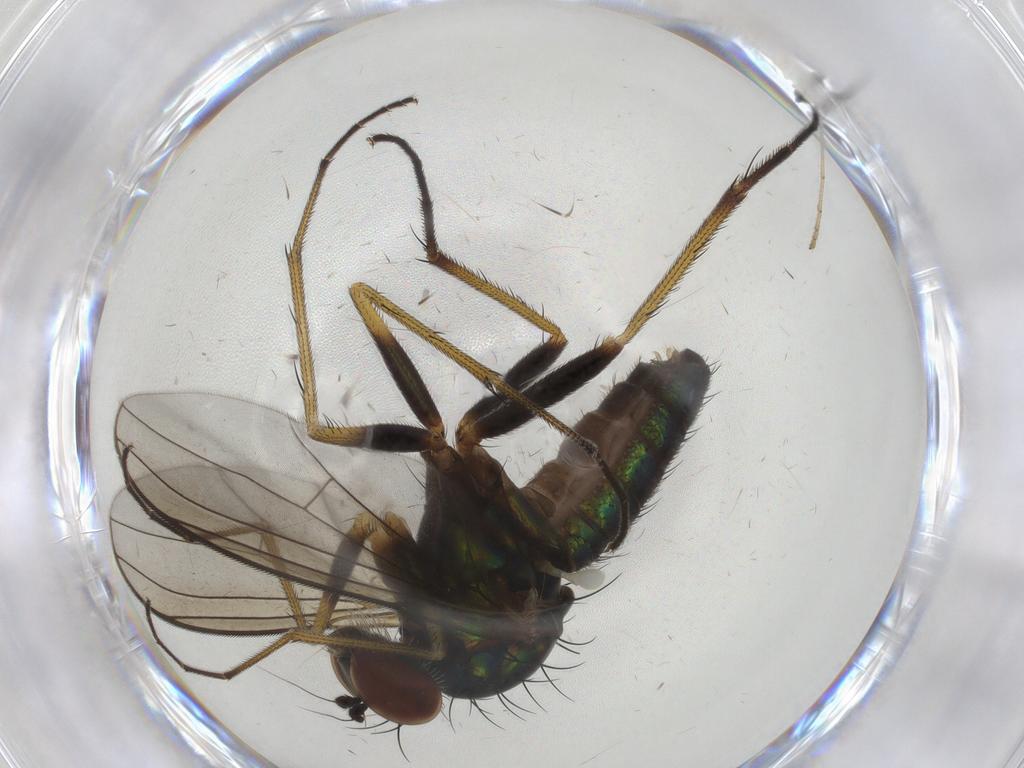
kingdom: Animalia
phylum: Arthropoda
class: Insecta
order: Diptera
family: Dolichopodidae
